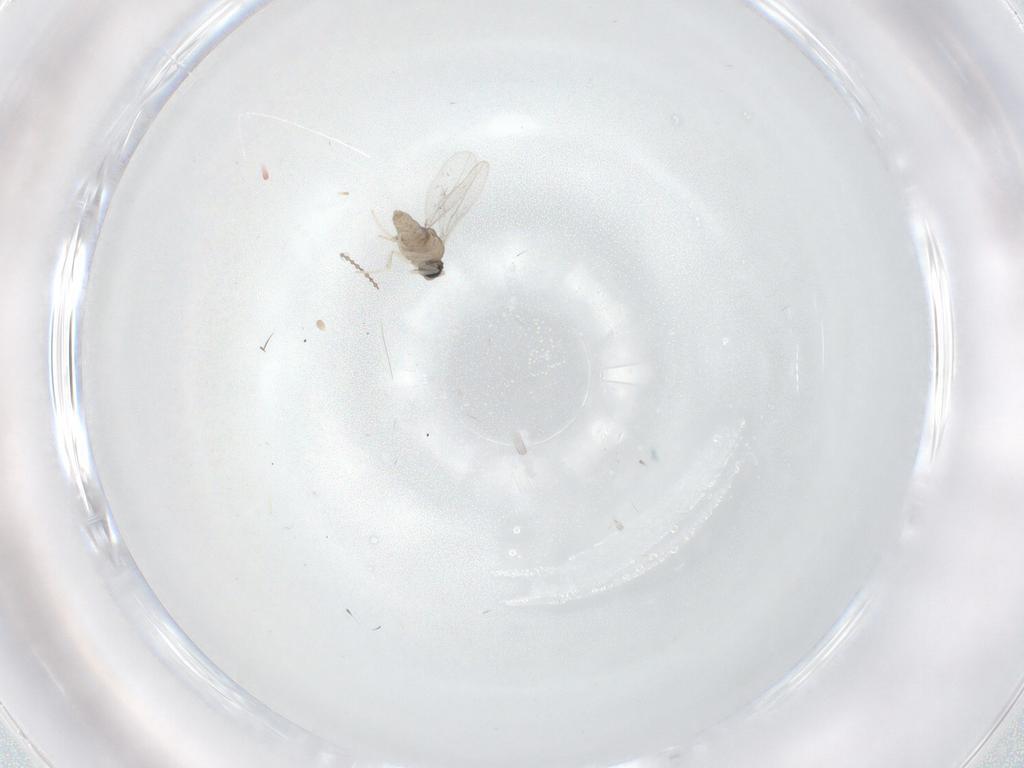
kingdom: Animalia
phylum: Arthropoda
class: Insecta
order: Diptera
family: Cecidomyiidae
